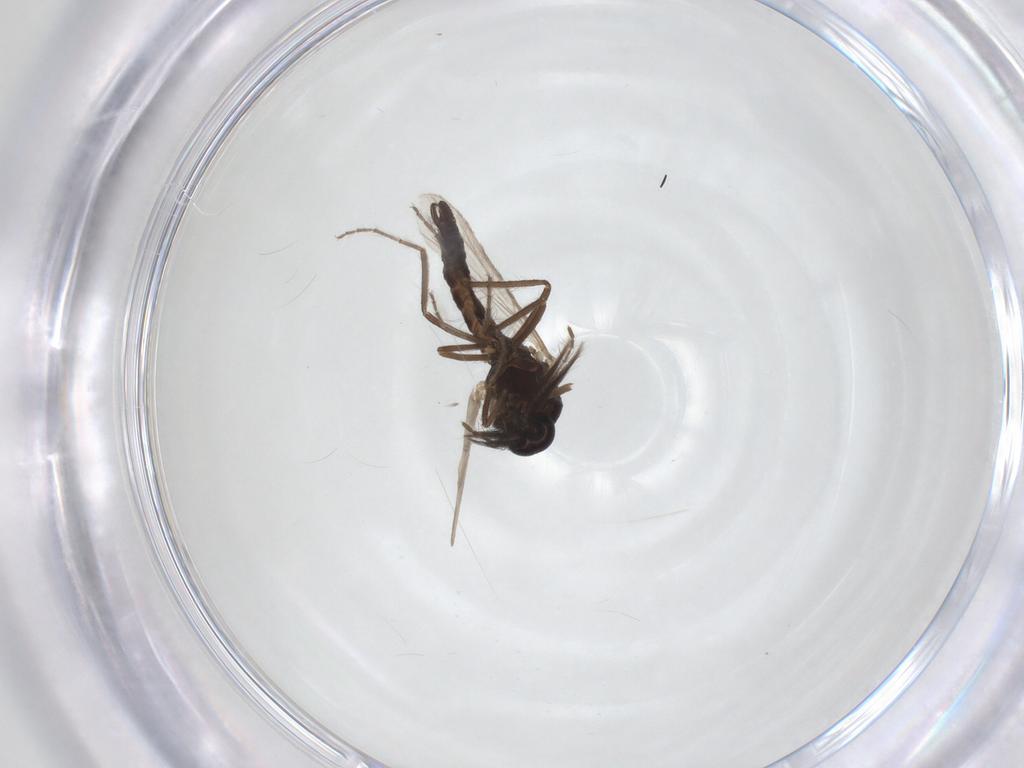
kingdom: Animalia
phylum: Arthropoda
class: Insecta
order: Diptera
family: Ceratopogonidae
